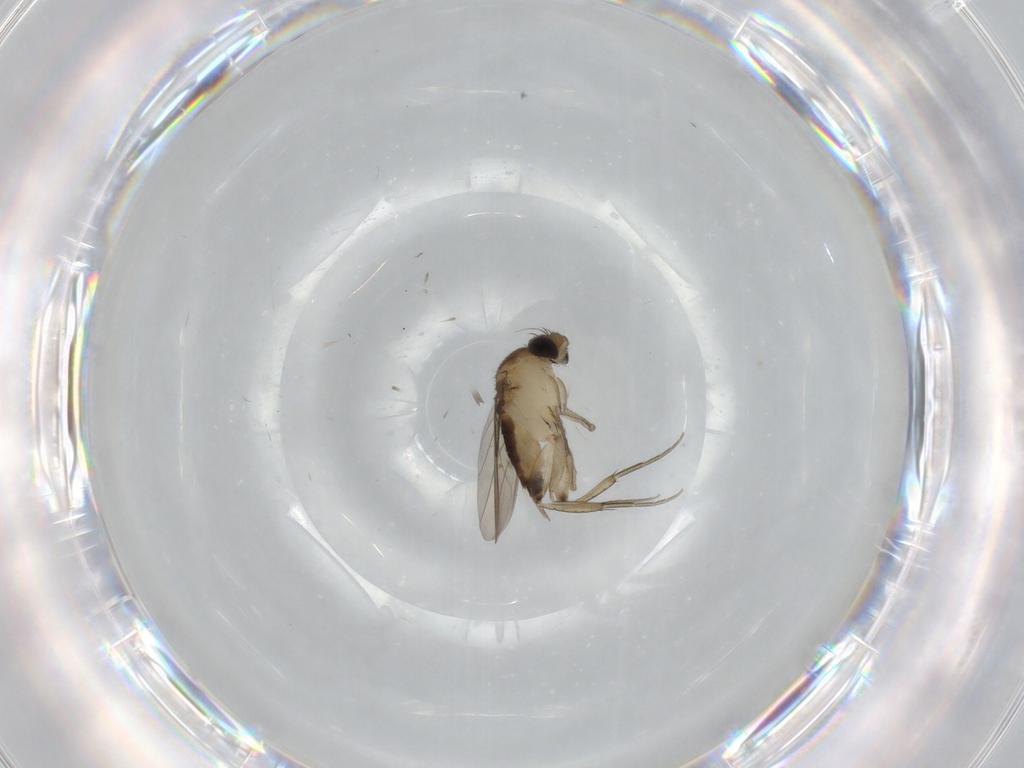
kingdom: Animalia
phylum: Arthropoda
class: Insecta
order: Diptera
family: Phoridae
